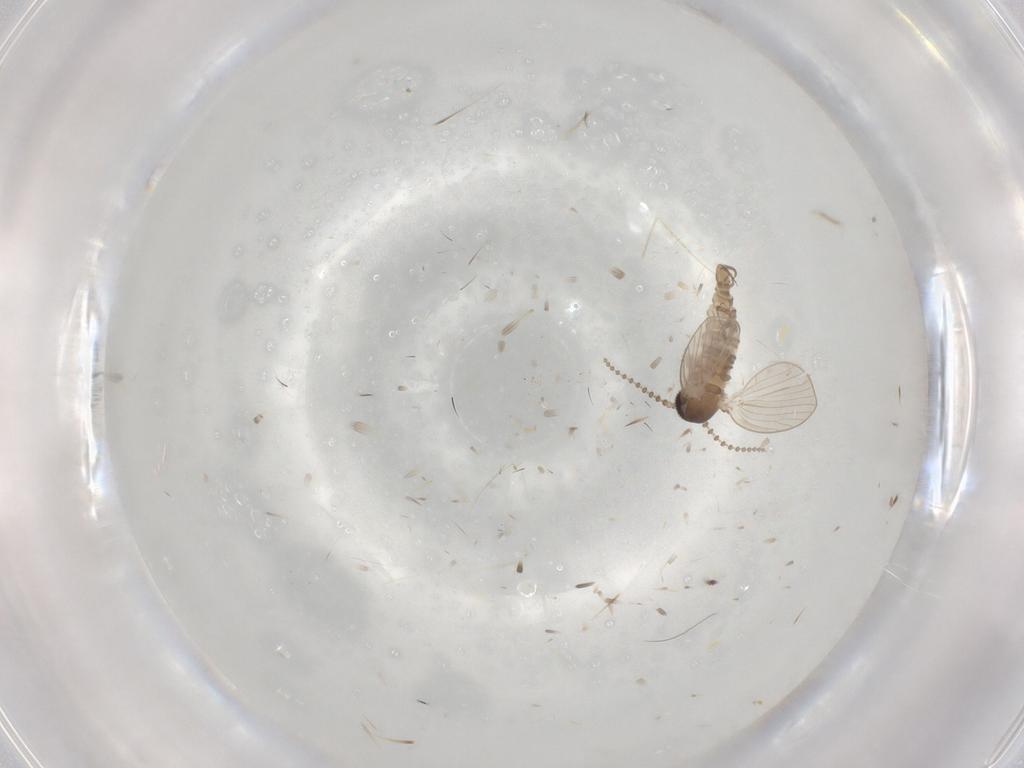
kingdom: Animalia
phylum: Arthropoda
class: Insecta
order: Diptera
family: Psychodidae
